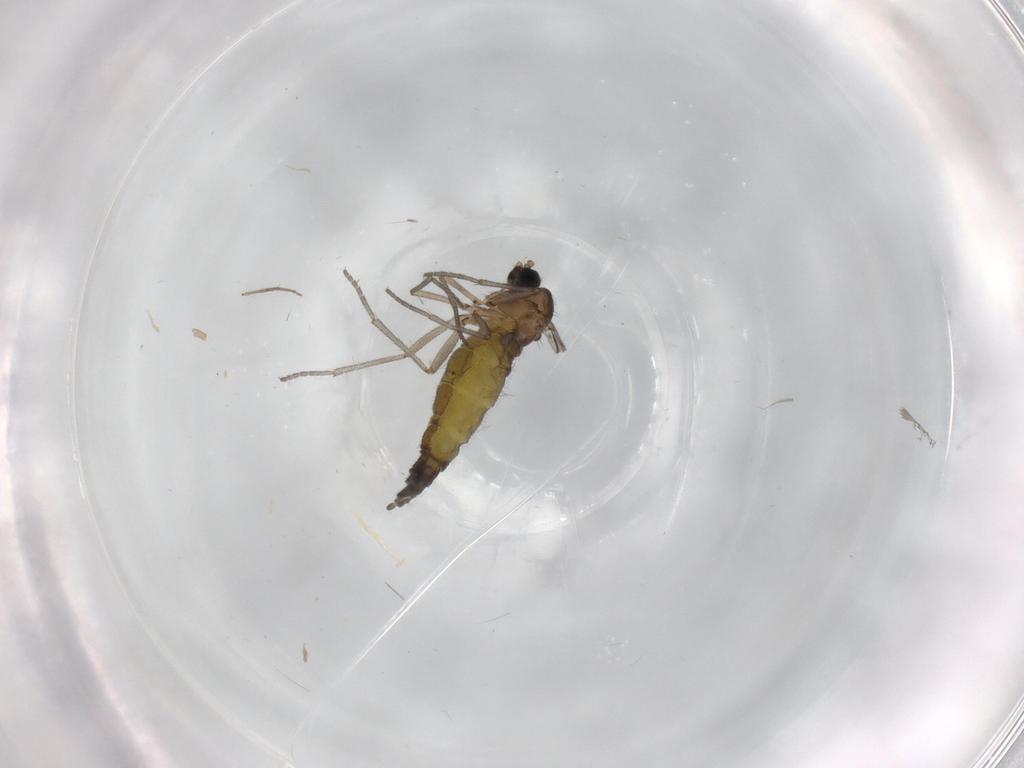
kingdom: Animalia
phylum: Arthropoda
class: Insecta
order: Diptera
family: Sciaridae
